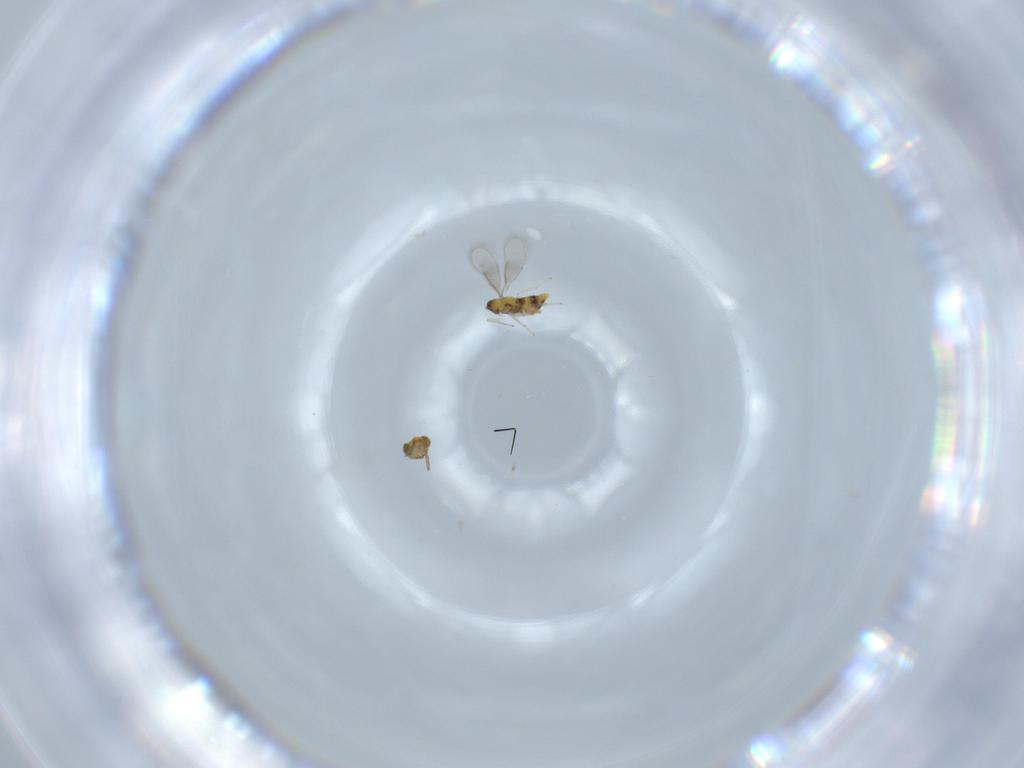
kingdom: Animalia
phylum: Arthropoda
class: Insecta
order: Hymenoptera
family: Aphelinidae
